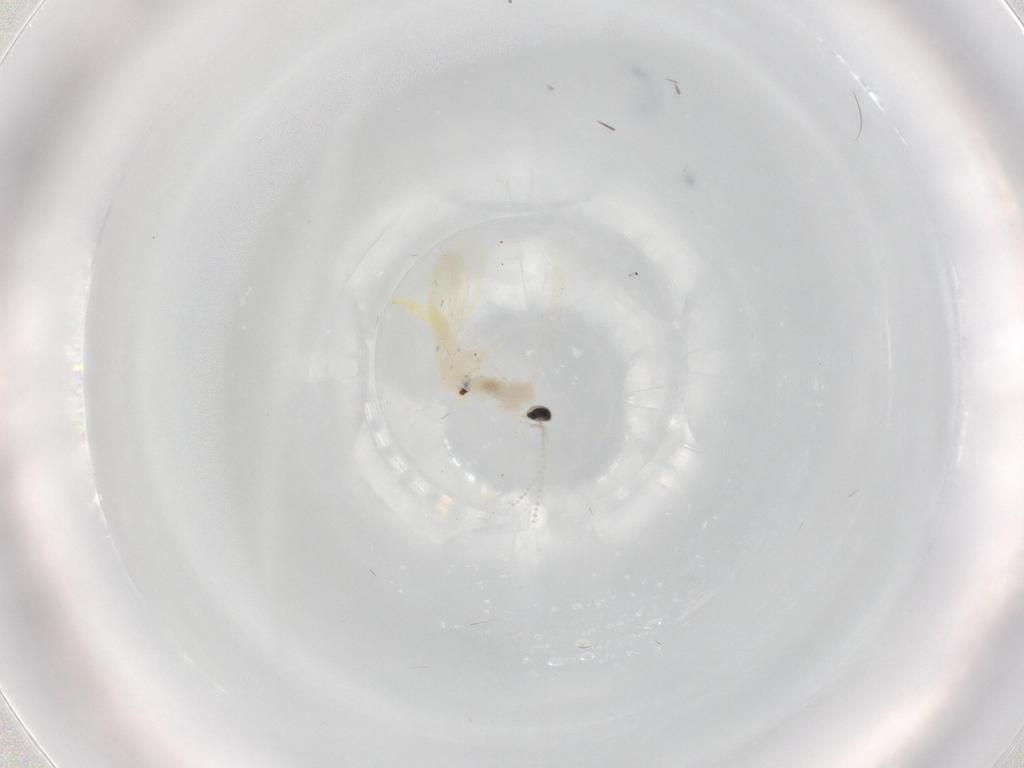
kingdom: Animalia
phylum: Arthropoda
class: Insecta
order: Diptera
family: Cecidomyiidae
